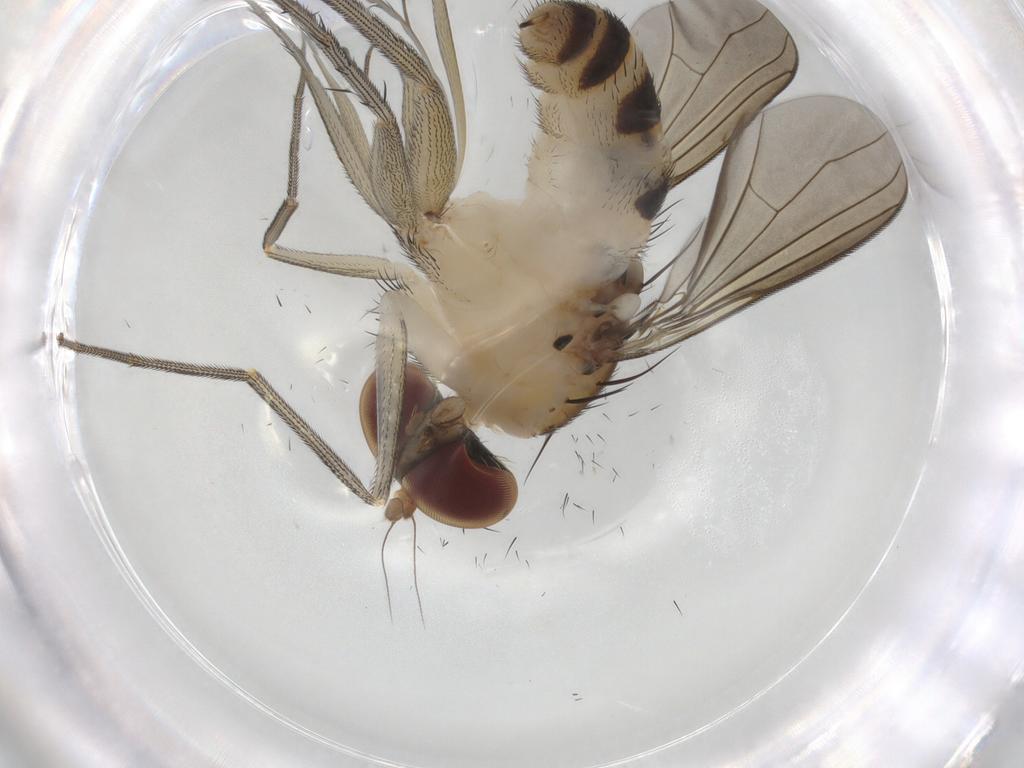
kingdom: Animalia
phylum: Arthropoda
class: Insecta
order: Diptera
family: Dolichopodidae
